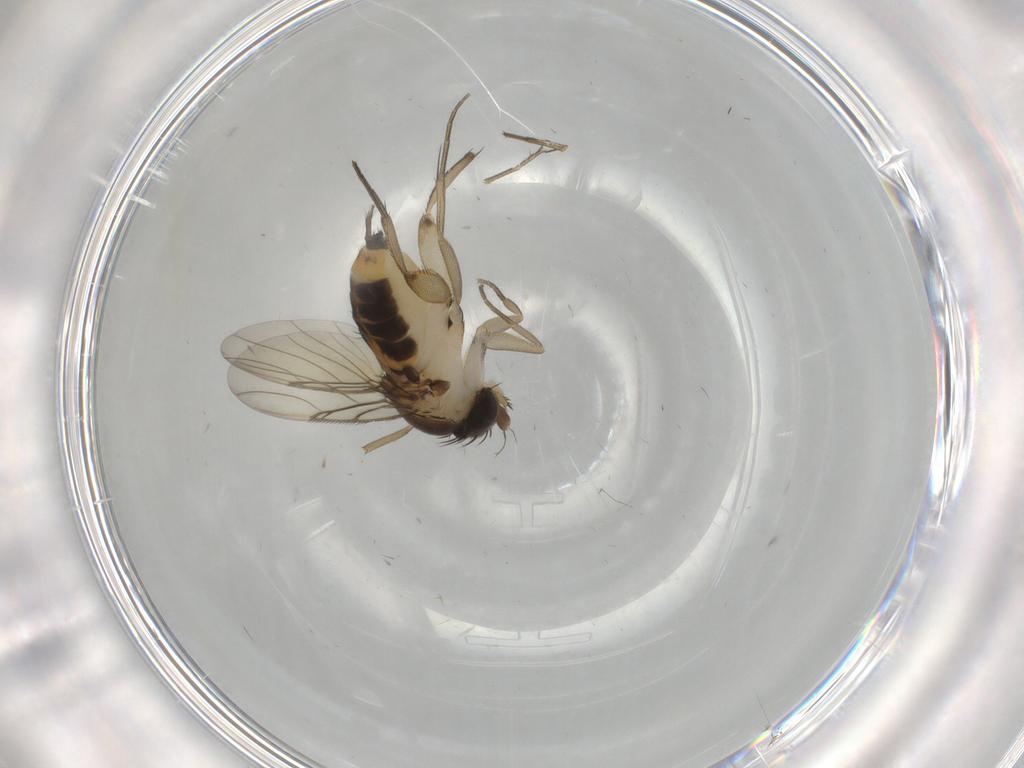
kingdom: Animalia
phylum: Arthropoda
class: Insecta
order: Diptera
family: Phoridae
